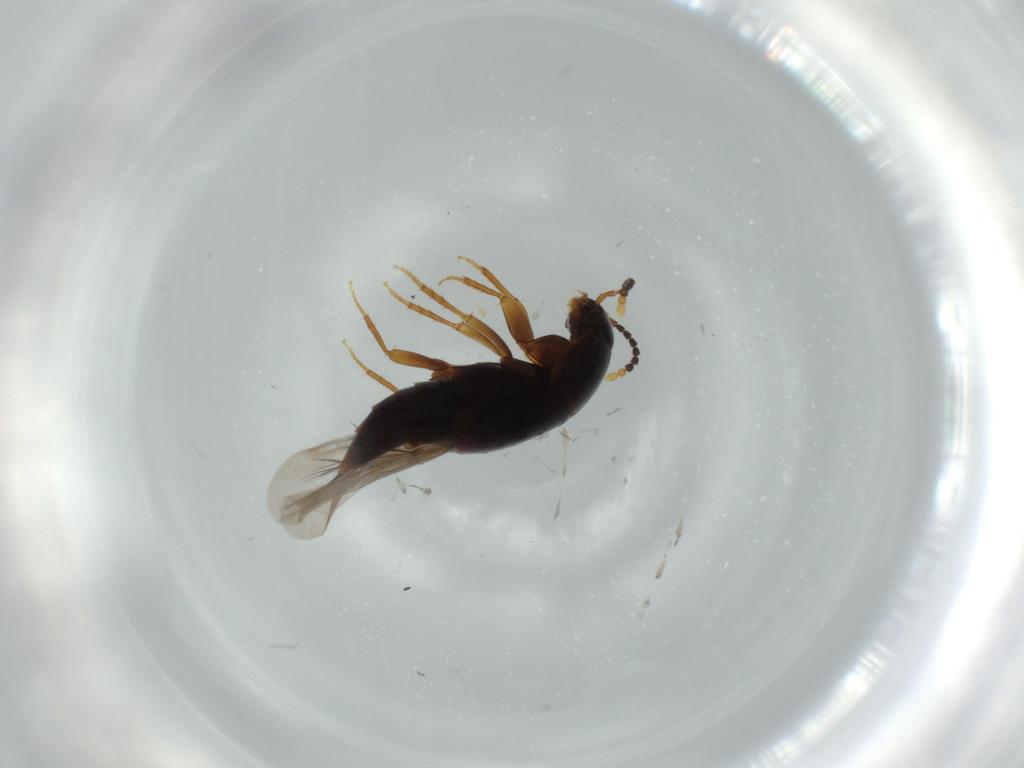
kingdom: Animalia
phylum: Arthropoda
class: Insecta
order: Coleoptera
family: Staphylinidae
